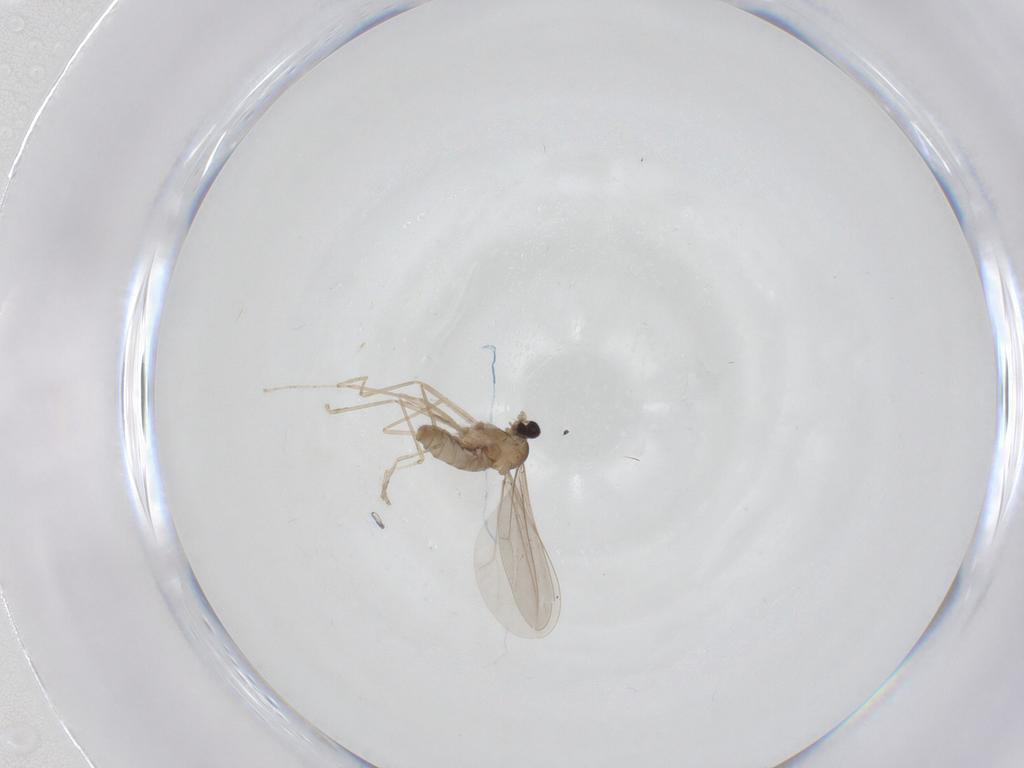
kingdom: Animalia
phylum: Arthropoda
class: Insecta
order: Diptera
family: Cecidomyiidae
